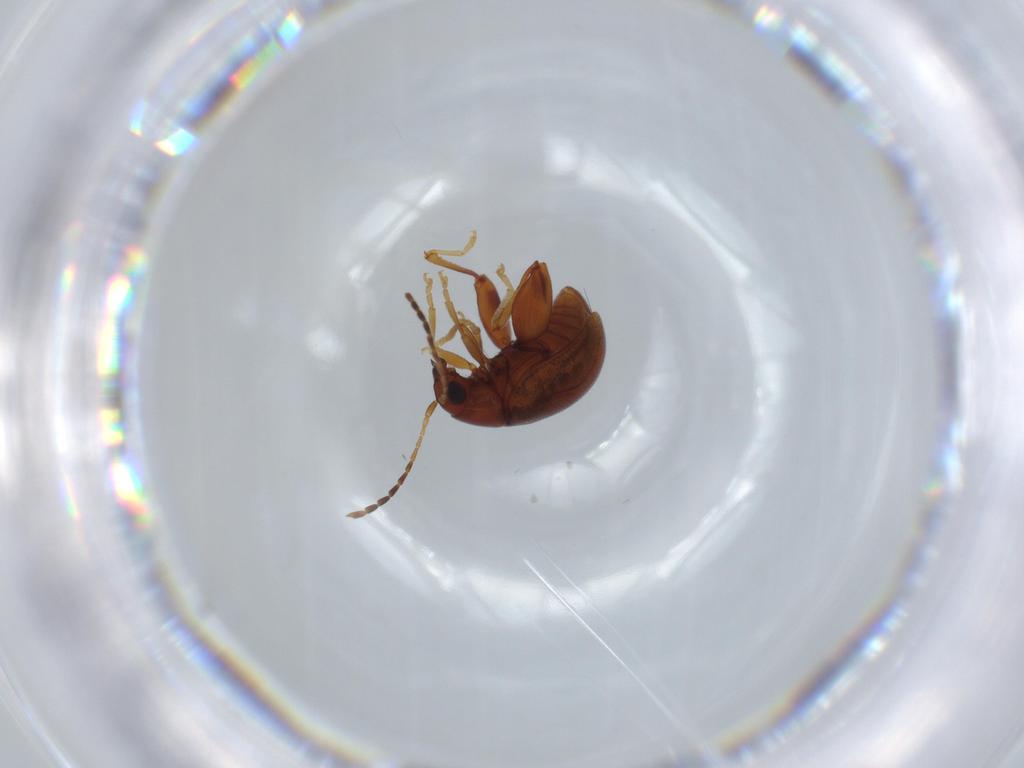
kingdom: Animalia
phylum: Arthropoda
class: Insecta
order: Coleoptera
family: Chrysomelidae
